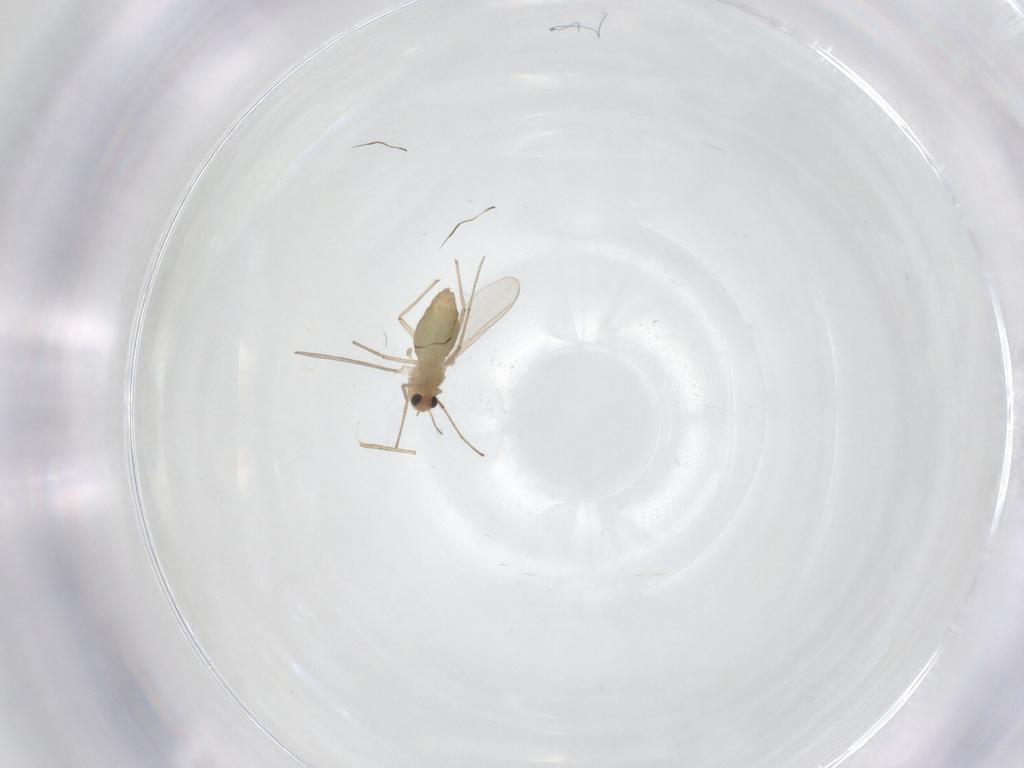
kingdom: Animalia
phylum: Arthropoda
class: Insecta
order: Diptera
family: Chironomidae
